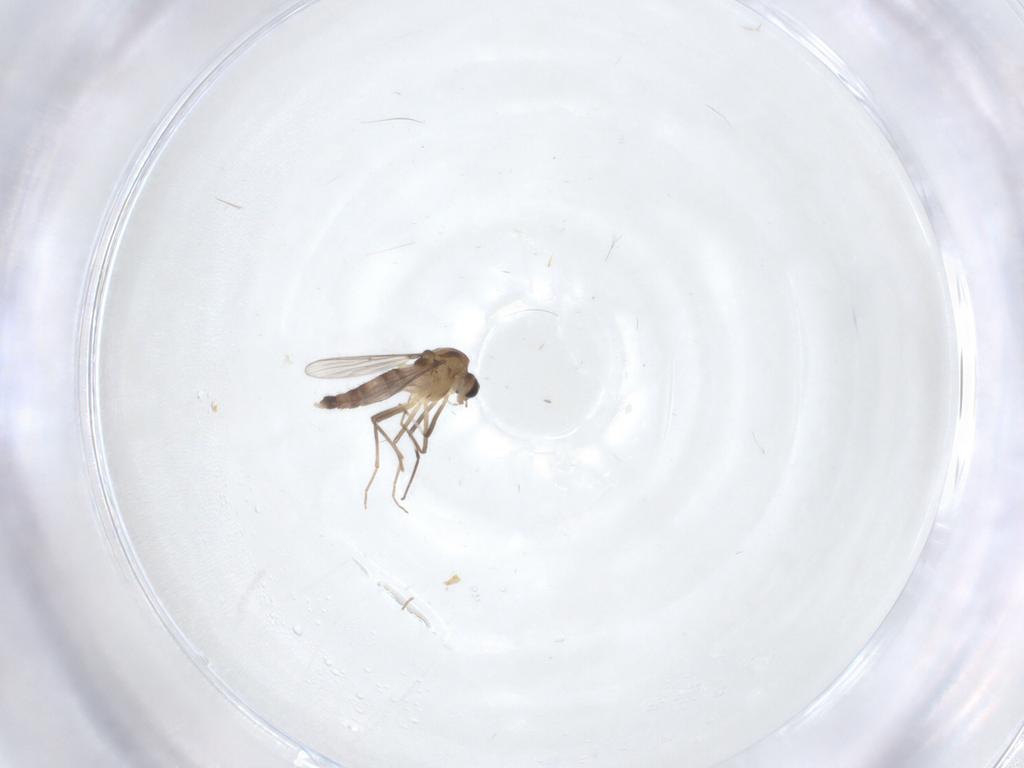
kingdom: Animalia
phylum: Arthropoda
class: Insecta
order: Diptera
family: Chironomidae
